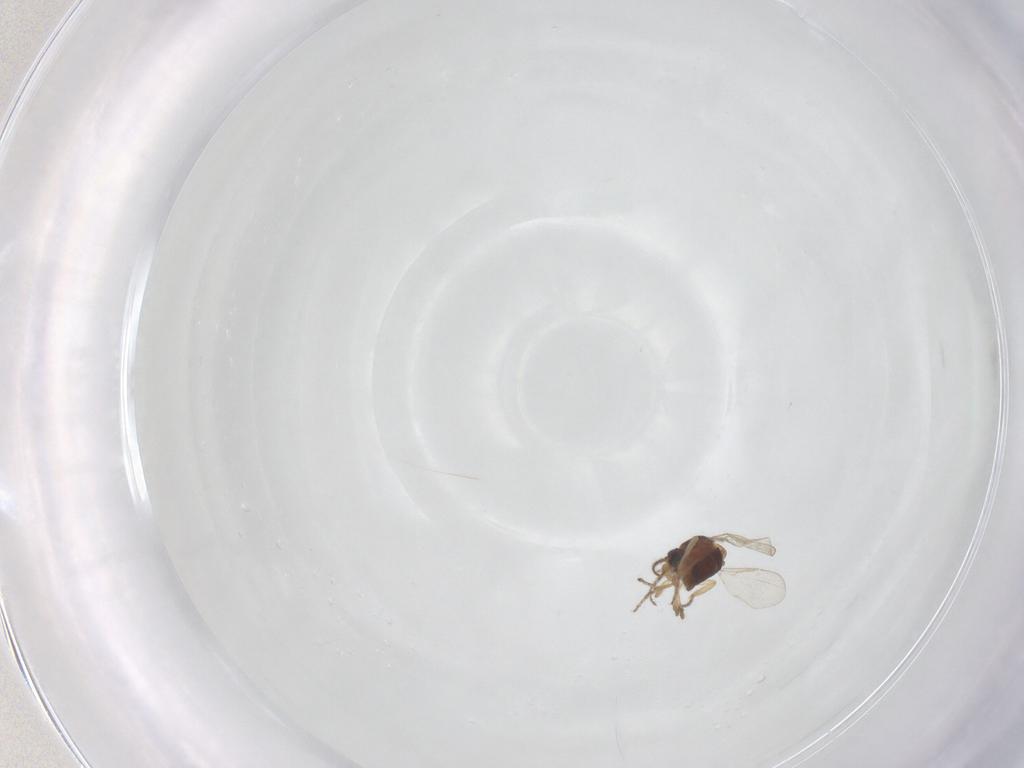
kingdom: Animalia
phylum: Arthropoda
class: Insecta
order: Diptera
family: Ceratopogonidae
